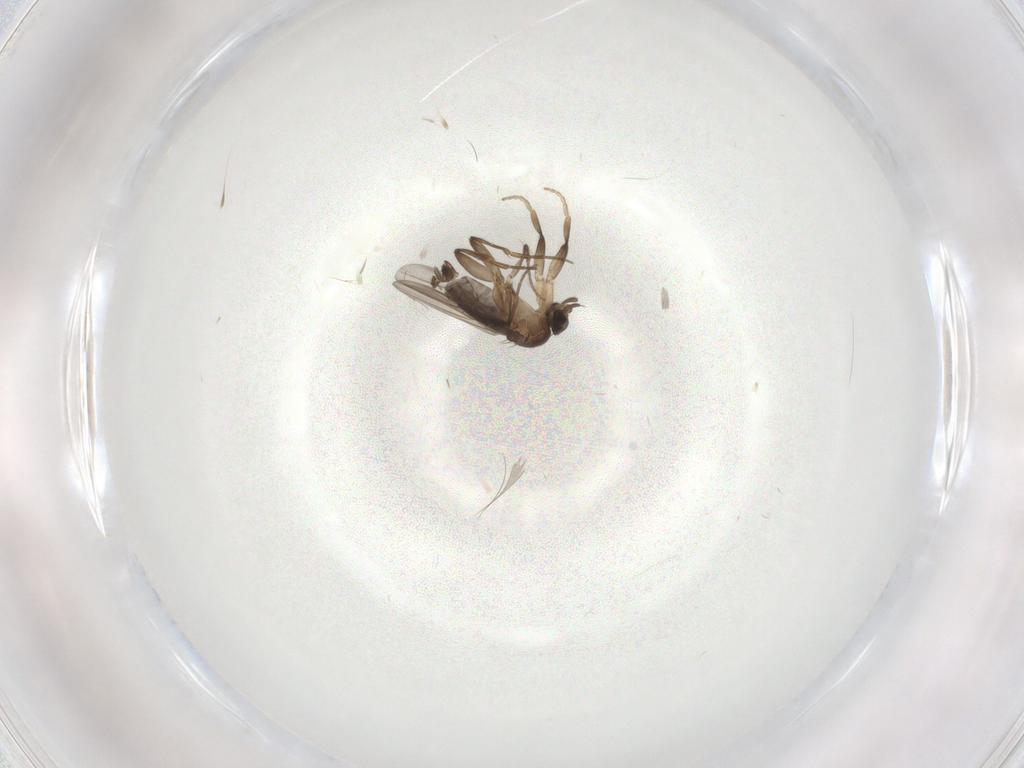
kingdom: Animalia
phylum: Arthropoda
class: Insecta
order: Diptera
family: Phoridae
